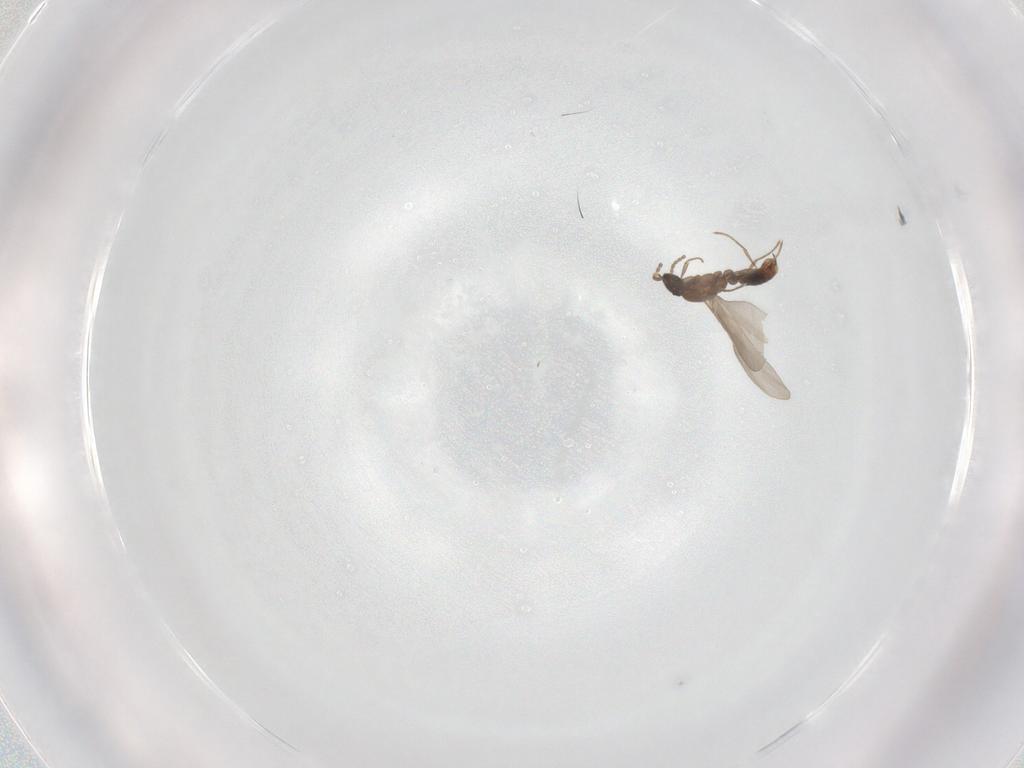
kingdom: Animalia
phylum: Arthropoda
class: Insecta
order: Hymenoptera
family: Formicidae
